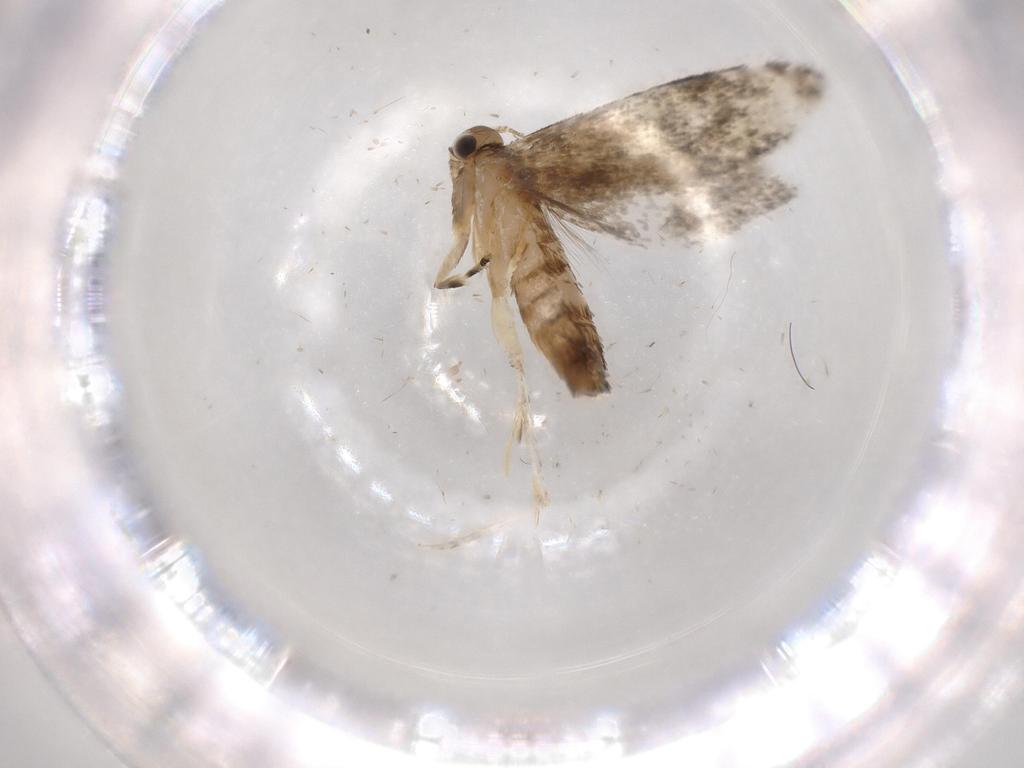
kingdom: Animalia
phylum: Arthropoda
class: Insecta
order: Lepidoptera
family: Tineidae
